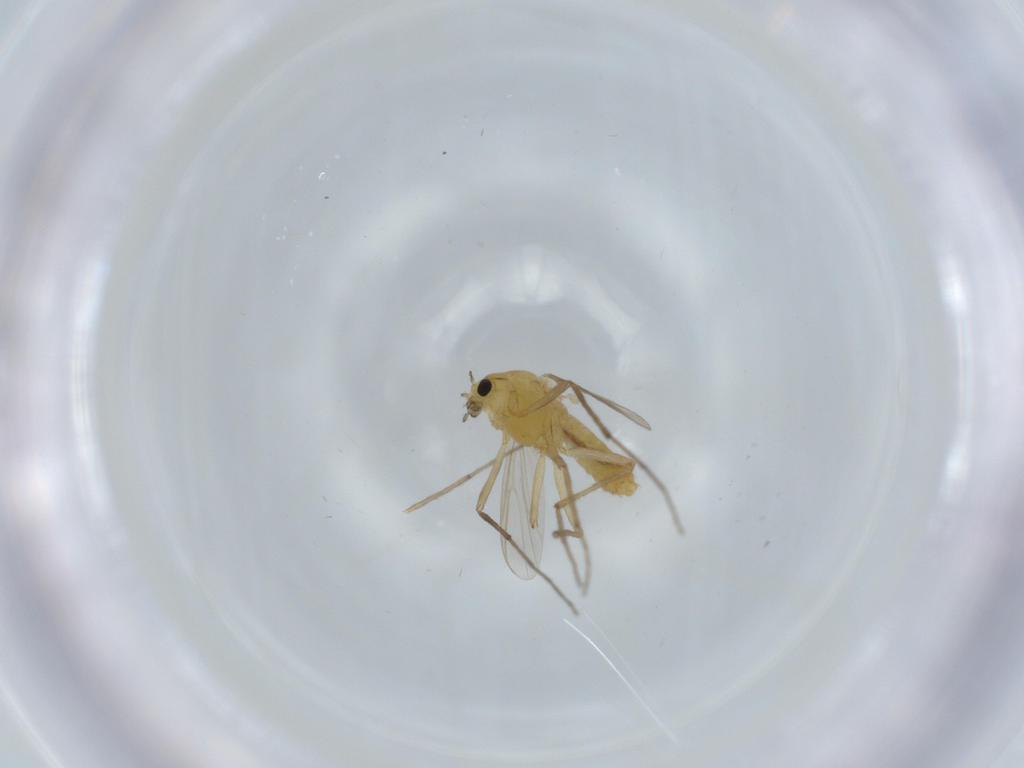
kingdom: Animalia
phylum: Arthropoda
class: Insecta
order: Diptera
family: Chironomidae
